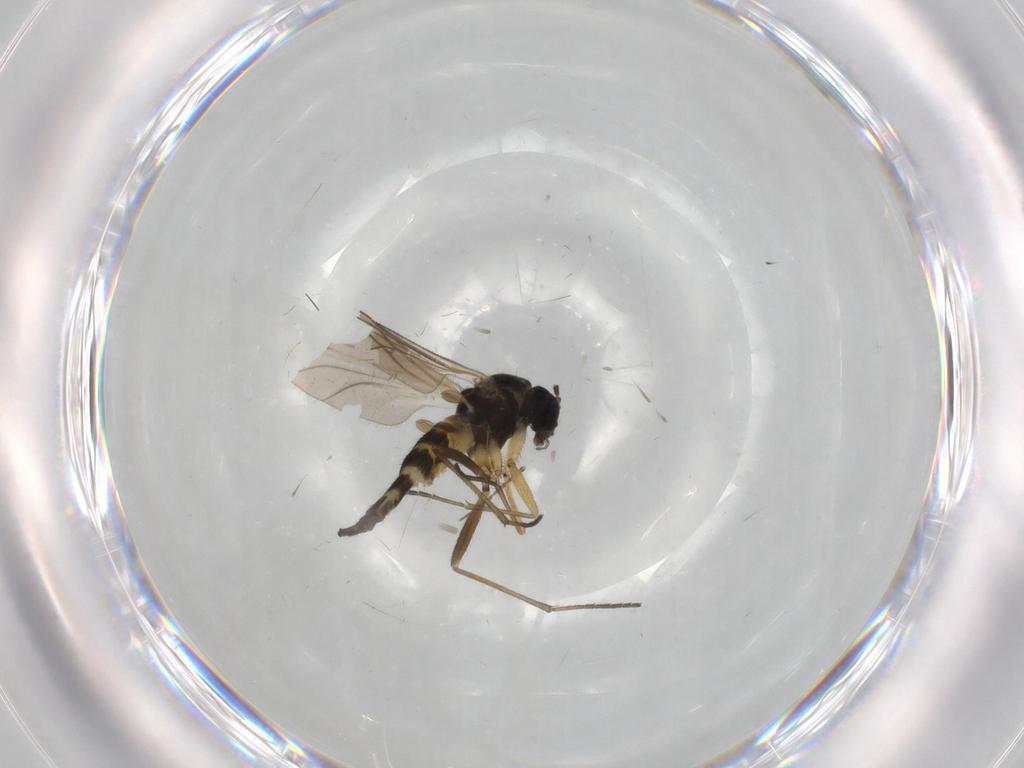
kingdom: Animalia
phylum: Arthropoda
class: Insecta
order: Diptera
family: Sciaridae
